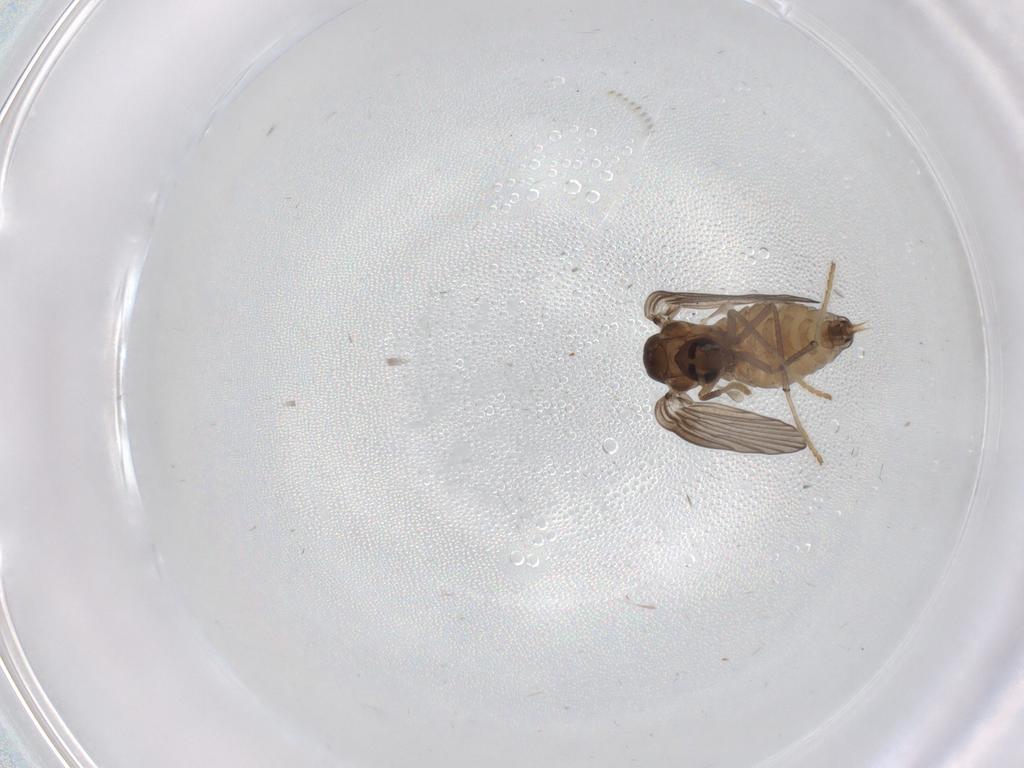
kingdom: Animalia
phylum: Arthropoda
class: Insecta
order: Diptera
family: Psychodidae
